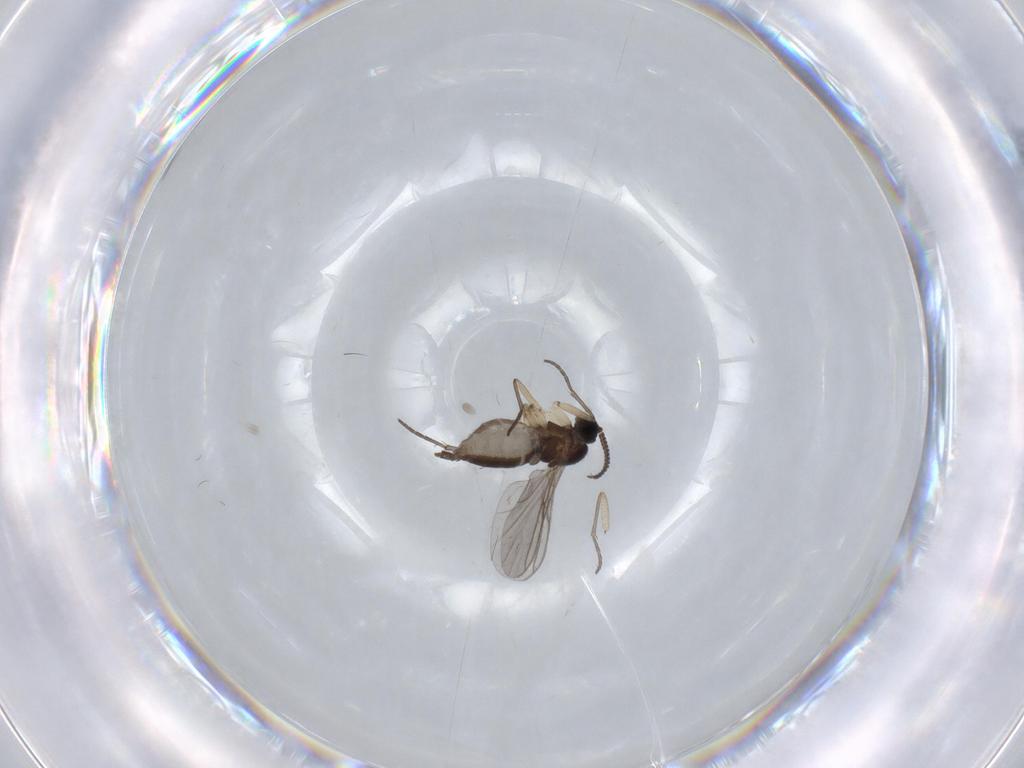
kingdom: Animalia
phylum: Arthropoda
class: Insecta
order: Diptera
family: Sciaridae
